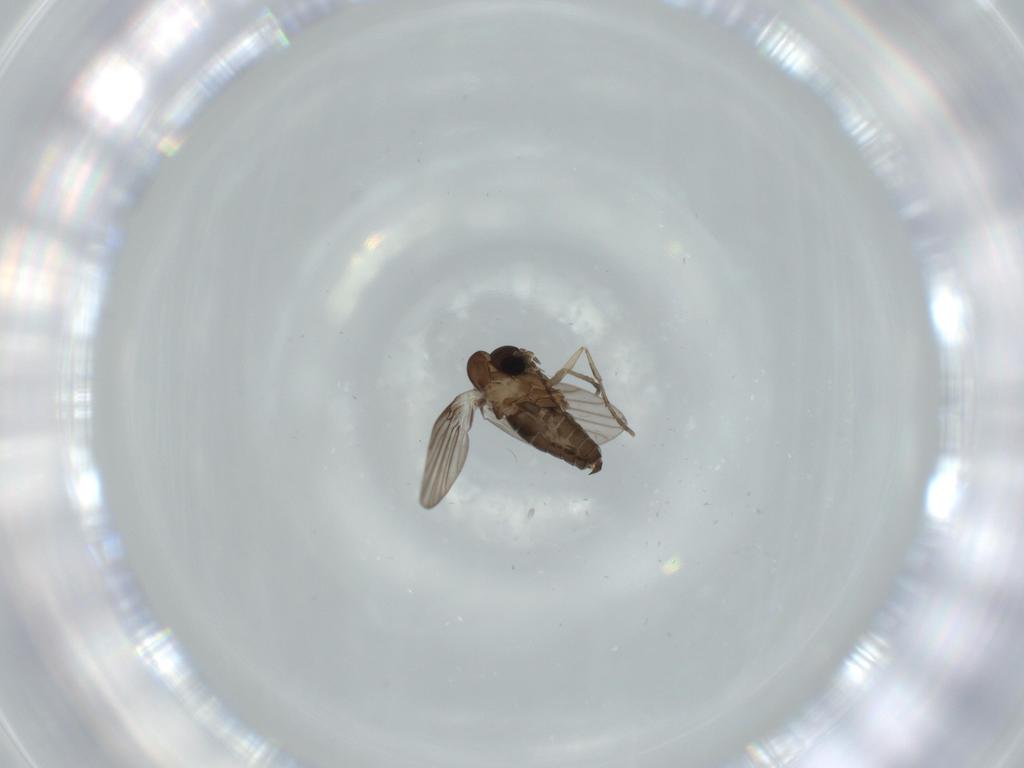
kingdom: Animalia
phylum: Arthropoda
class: Insecta
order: Diptera
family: Psychodidae
